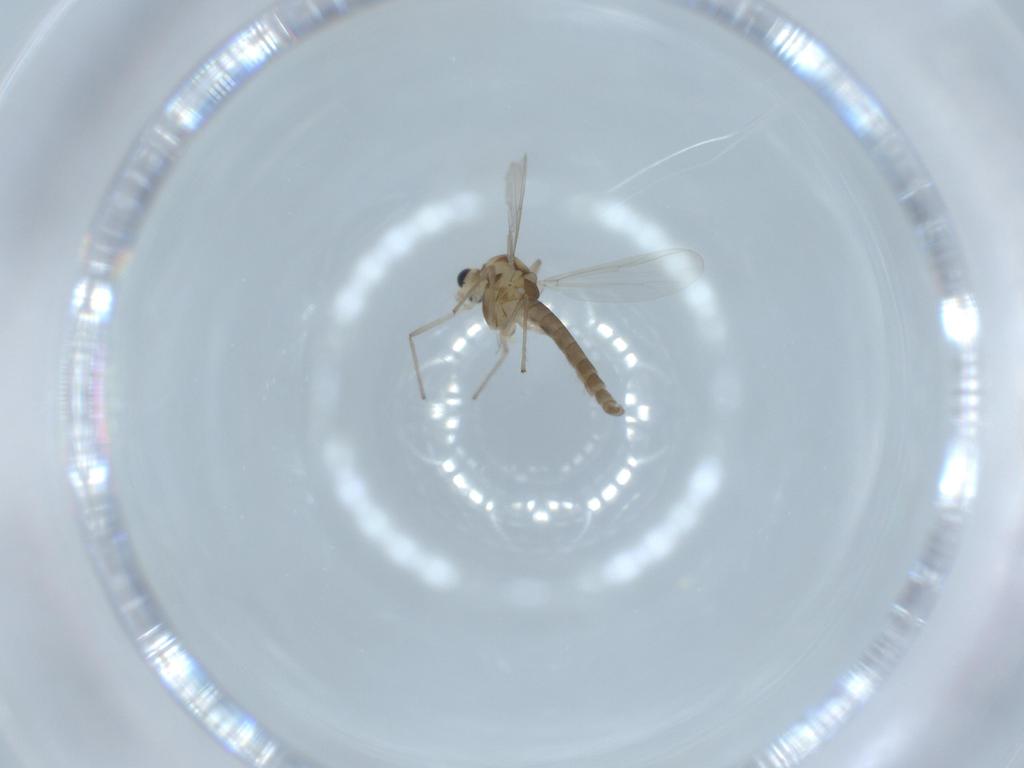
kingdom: Animalia
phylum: Arthropoda
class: Insecta
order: Diptera
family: Chironomidae
